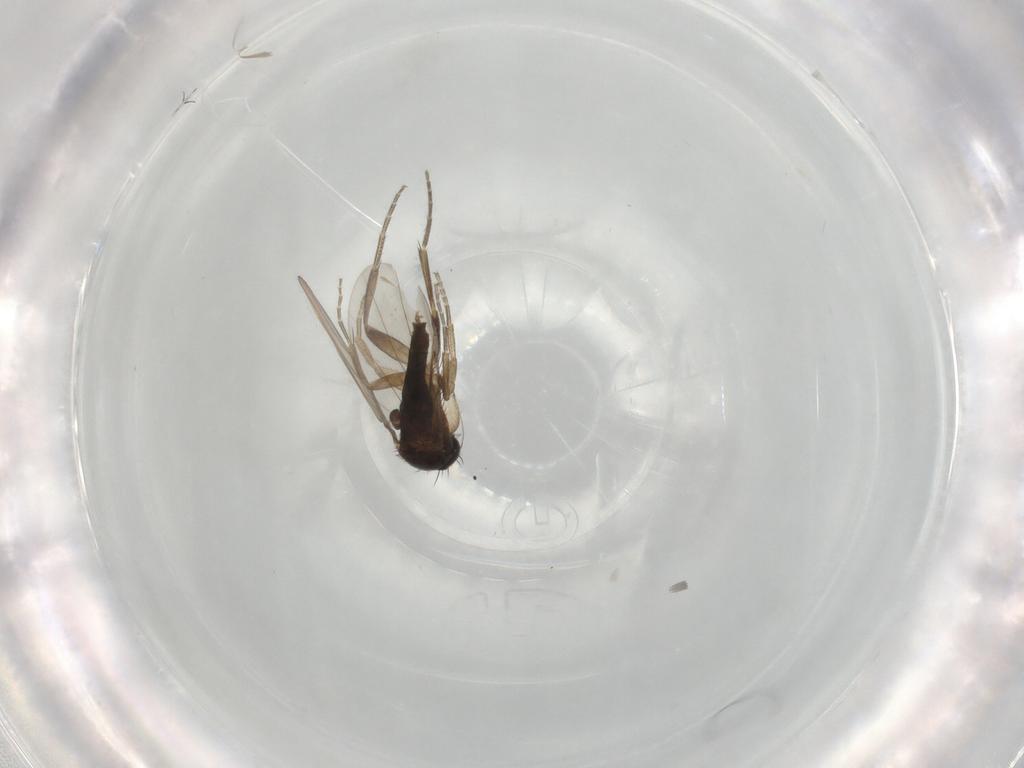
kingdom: Animalia
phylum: Arthropoda
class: Insecta
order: Diptera
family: Phoridae
